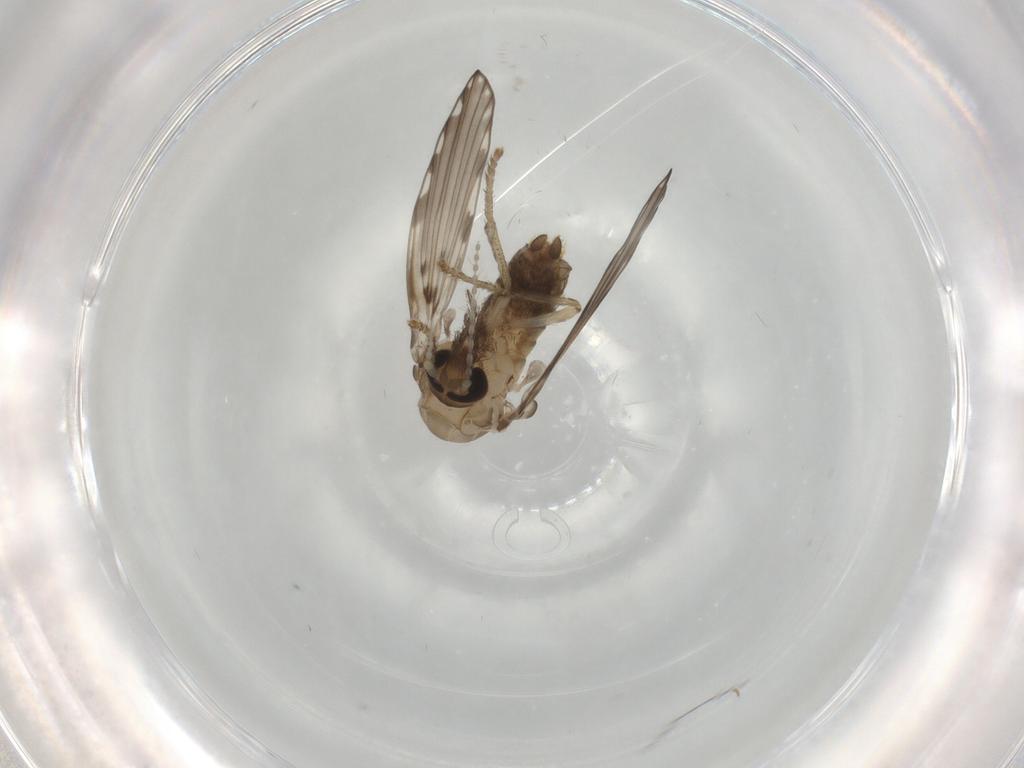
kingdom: Animalia
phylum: Arthropoda
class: Insecta
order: Diptera
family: Psychodidae
